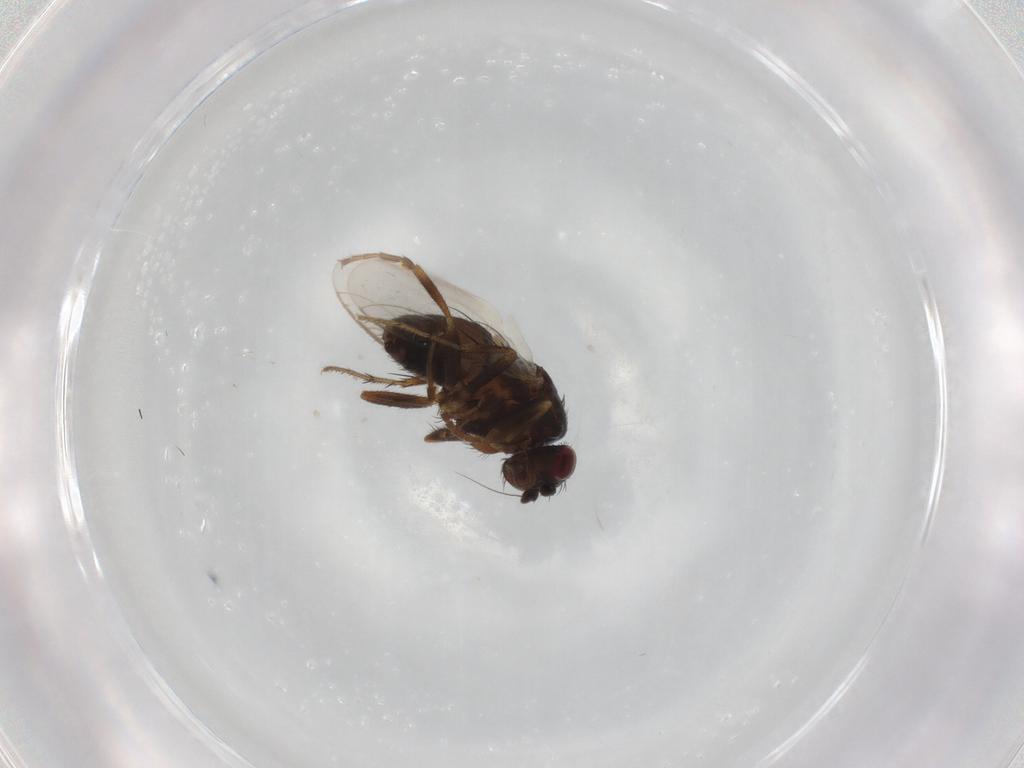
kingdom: Animalia
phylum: Arthropoda
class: Insecta
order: Diptera
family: Sphaeroceridae
